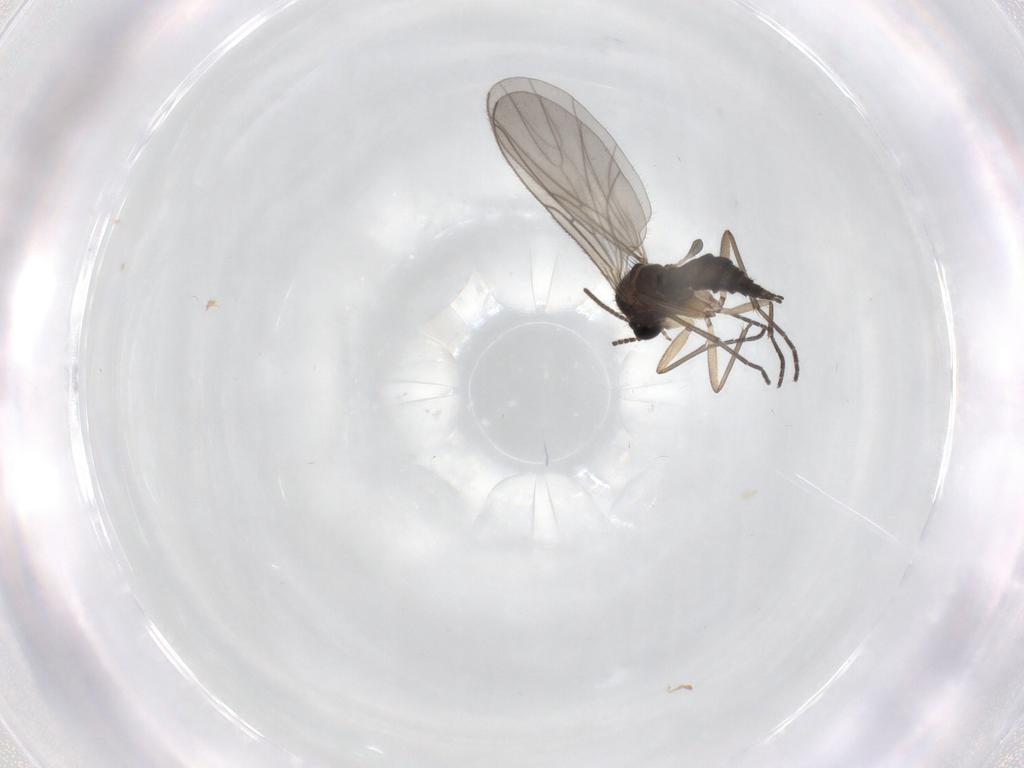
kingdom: Animalia
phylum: Arthropoda
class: Insecta
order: Diptera
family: Sciaridae
